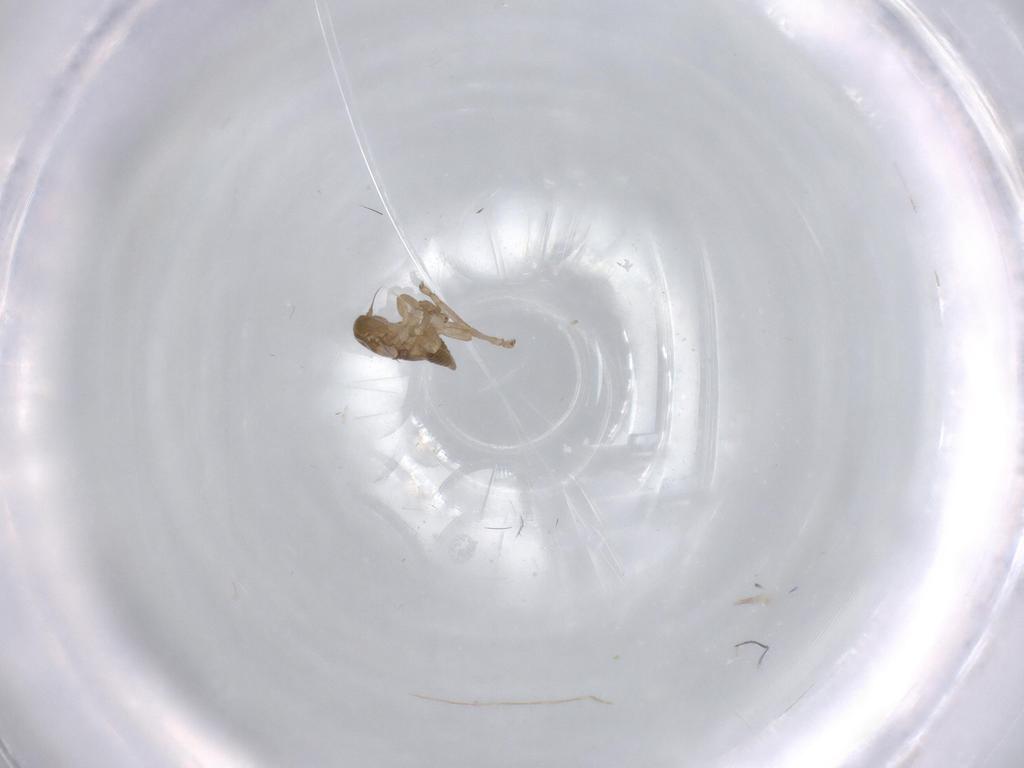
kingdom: Animalia
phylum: Arthropoda
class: Insecta
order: Hemiptera
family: Cicadellidae
